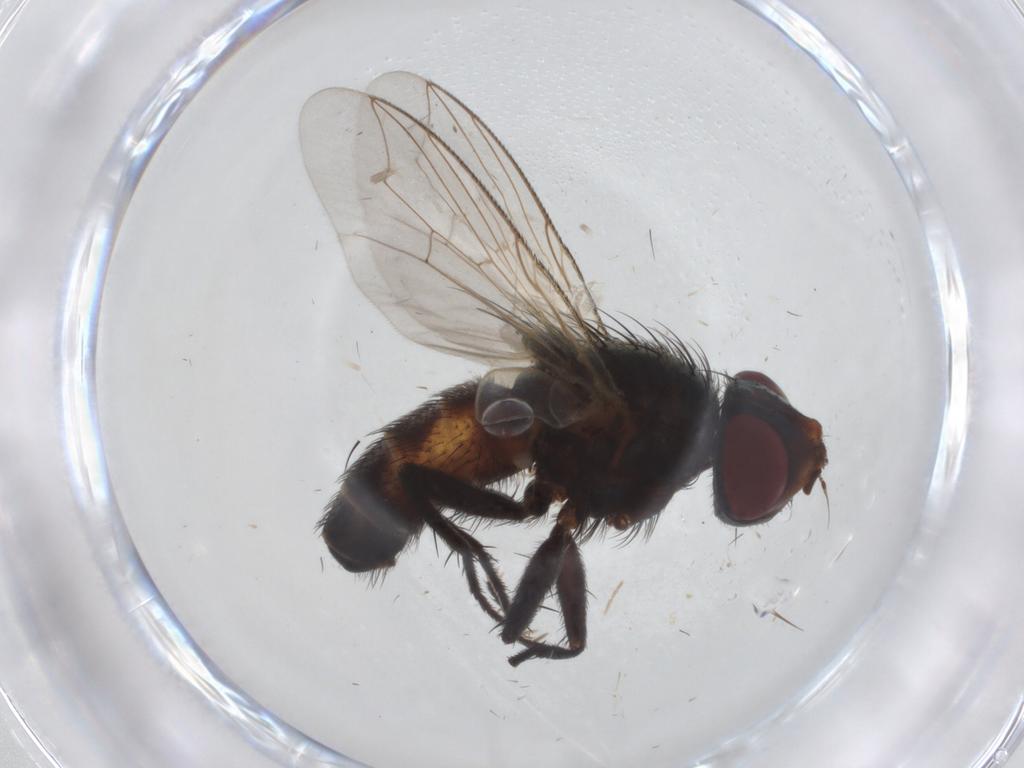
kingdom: Animalia
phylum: Arthropoda
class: Insecta
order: Diptera
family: Sarcophagidae
